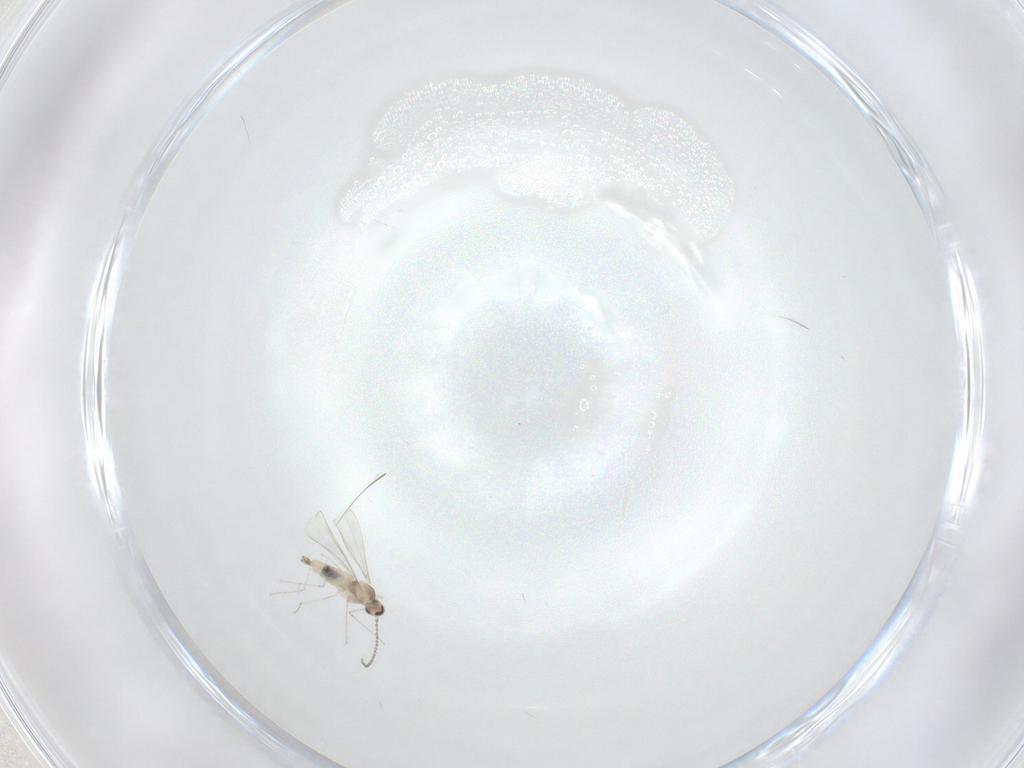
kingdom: Animalia
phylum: Arthropoda
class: Insecta
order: Diptera
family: Cecidomyiidae
